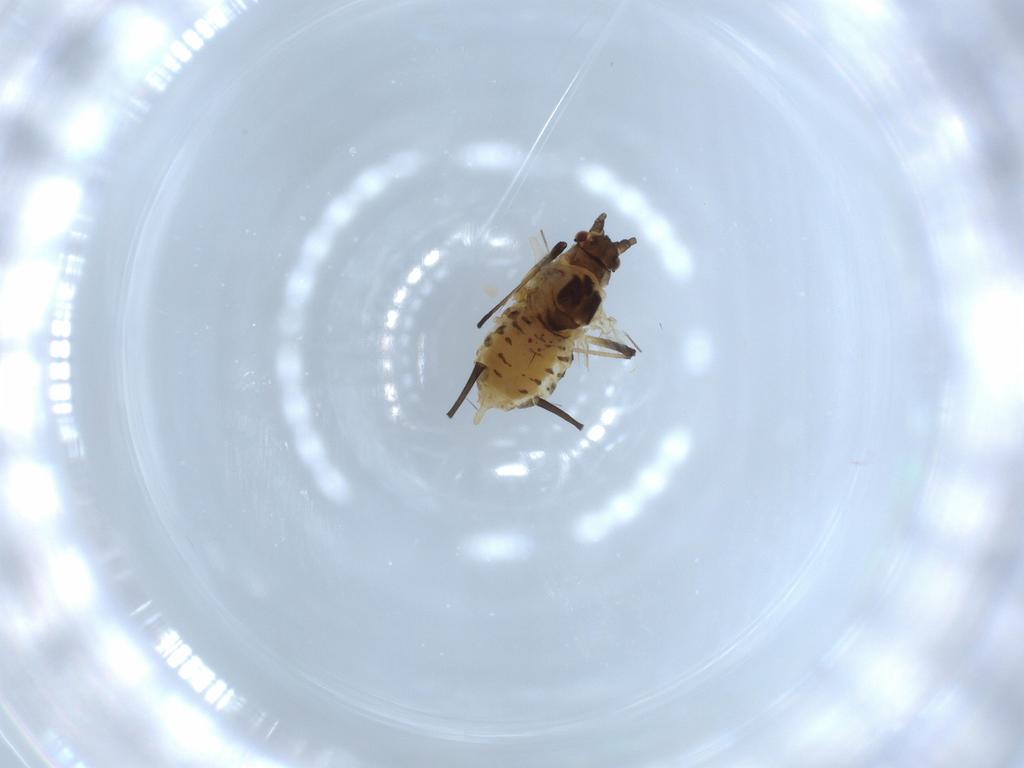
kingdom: Animalia
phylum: Arthropoda
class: Insecta
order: Hemiptera
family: Aphididae
